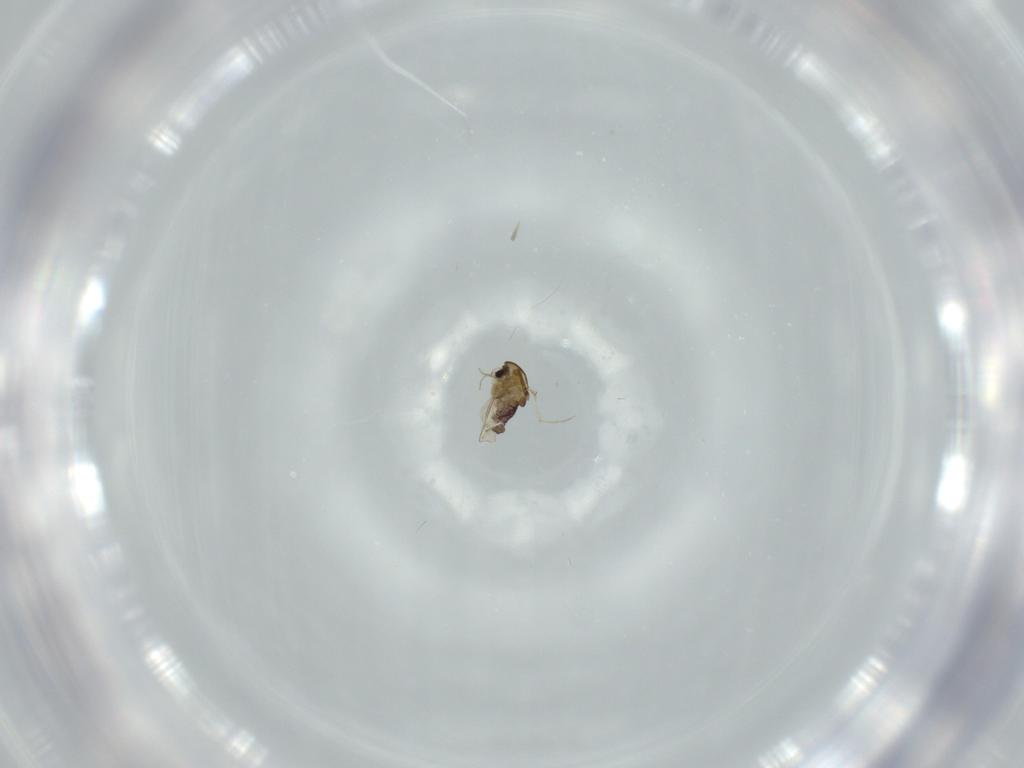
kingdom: Animalia
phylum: Arthropoda
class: Insecta
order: Diptera
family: Chironomidae
